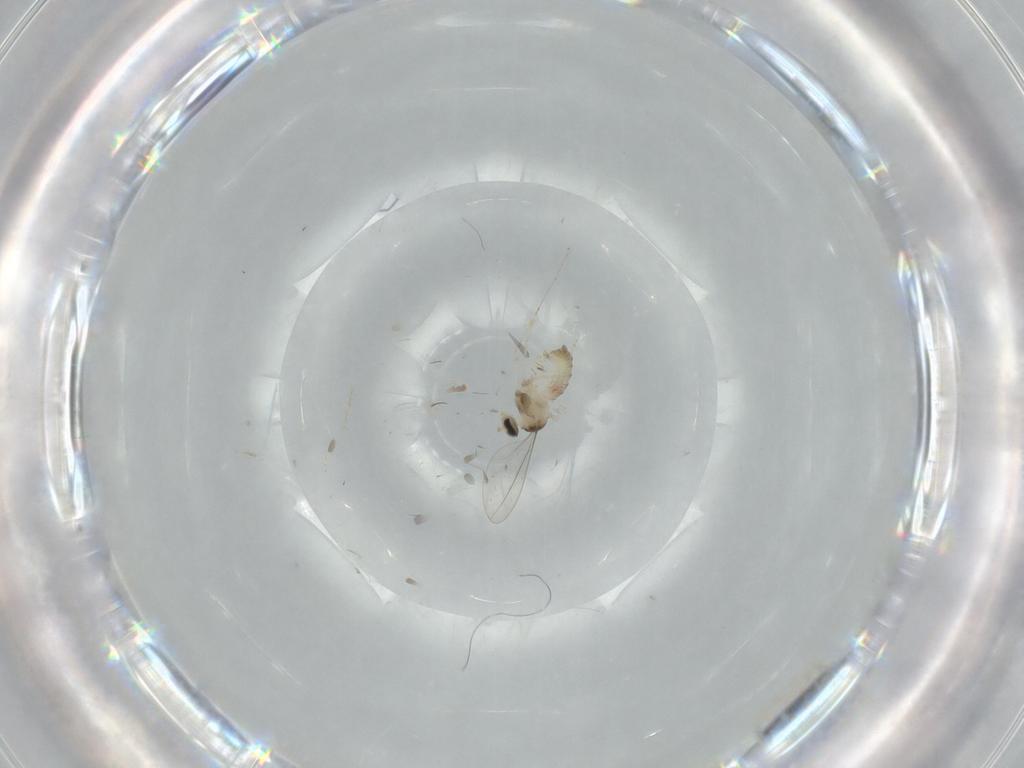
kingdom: Animalia
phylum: Arthropoda
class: Insecta
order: Diptera
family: Cecidomyiidae
